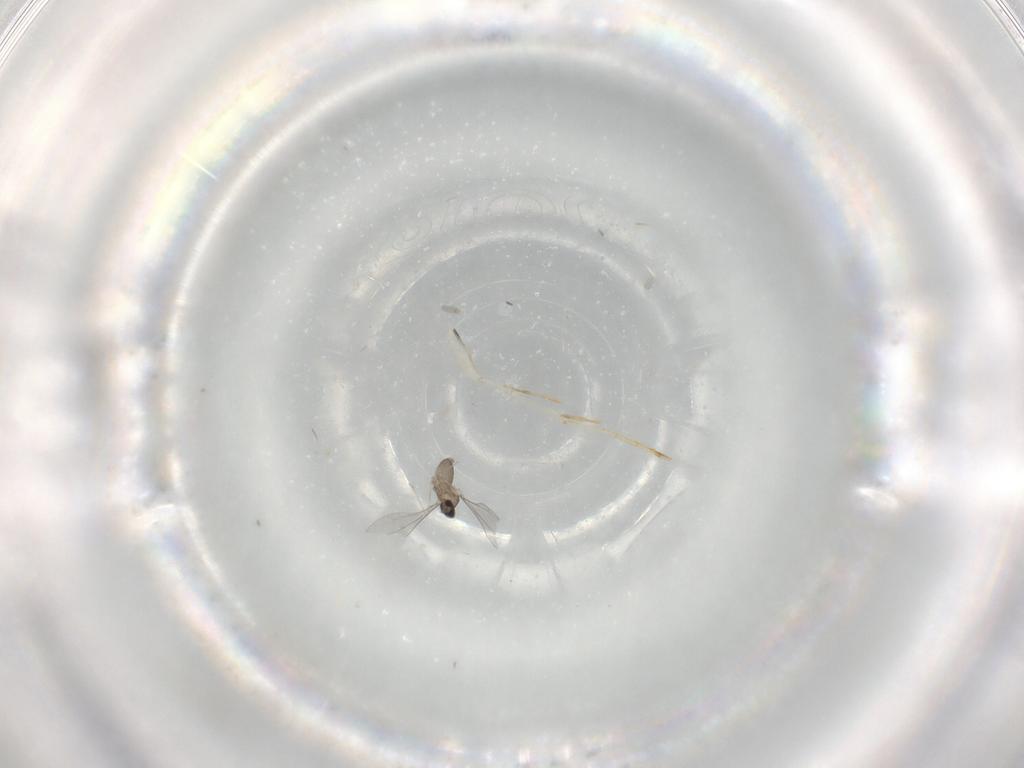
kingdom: Animalia
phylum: Arthropoda
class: Insecta
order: Diptera
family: Cecidomyiidae
